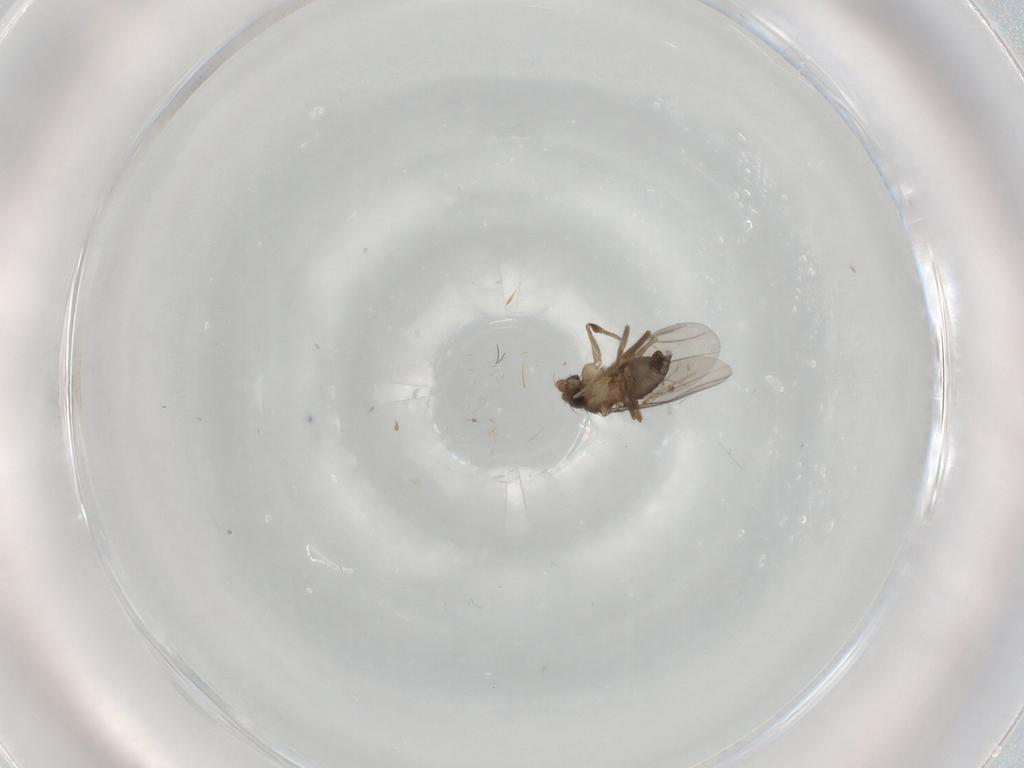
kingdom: Animalia
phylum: Arthropoda
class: Insecta
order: Diptera
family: Phoridae
